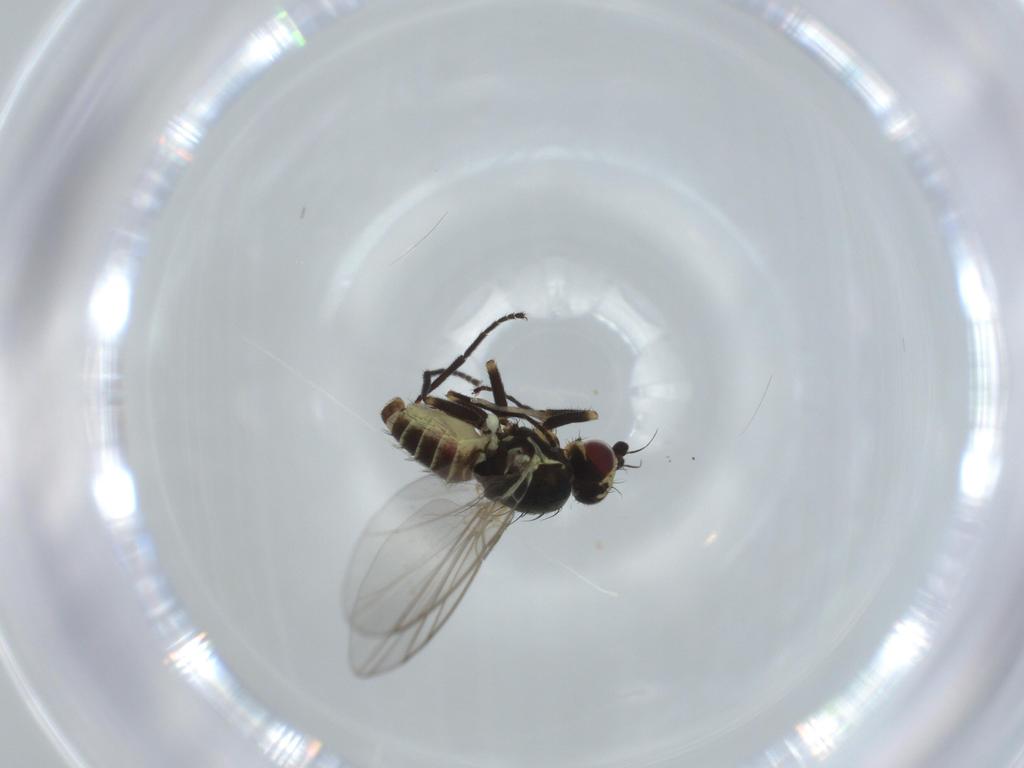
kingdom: Animalia
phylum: Arthropoda
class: Insecta
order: Diptera
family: Agromyzidae
